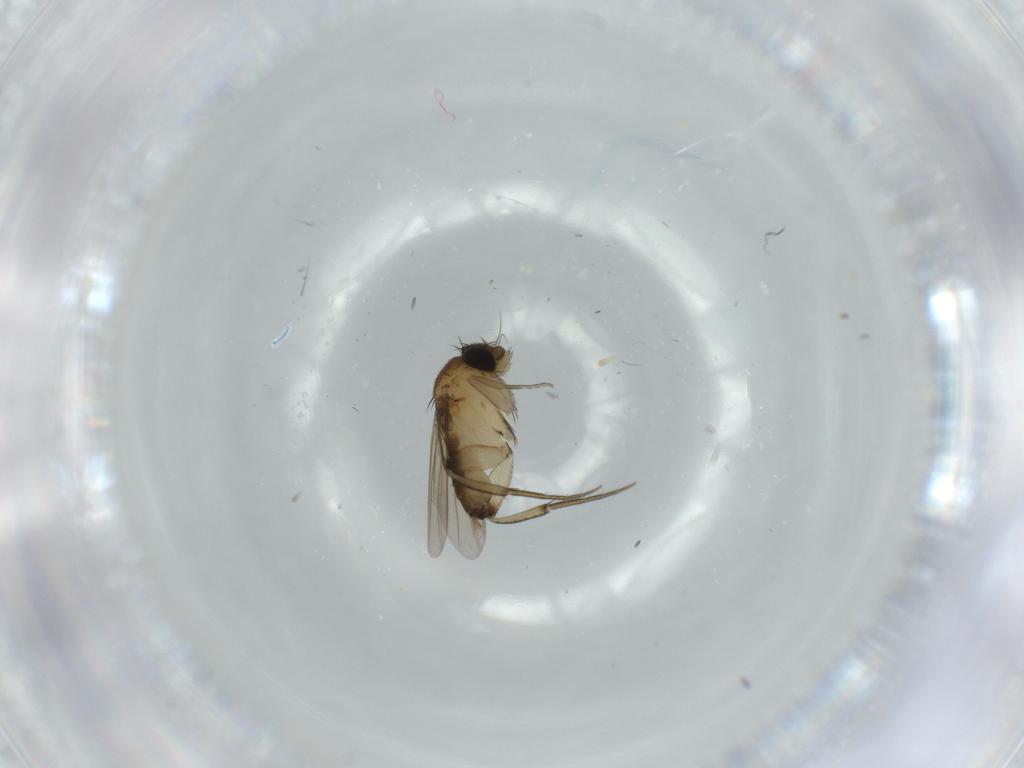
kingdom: Animalia
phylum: Arthropoda
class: Insecta
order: Diptera
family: Phoridae
